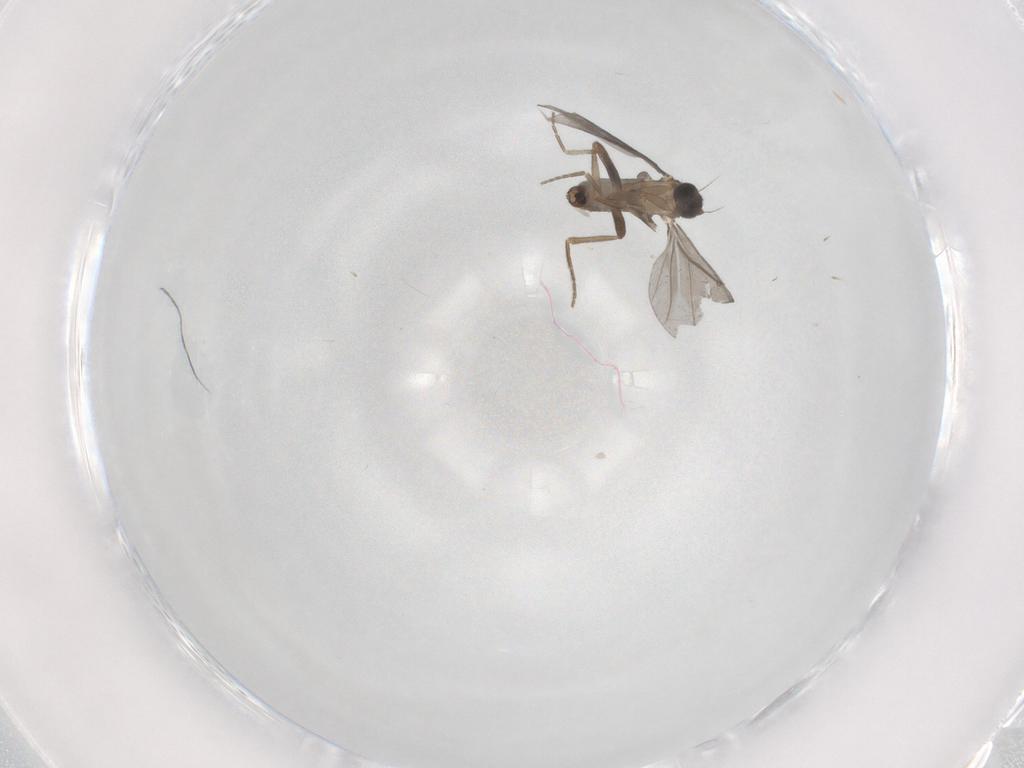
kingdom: Animalia
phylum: Arthropoda
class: Insecta
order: Diptera
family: Phoridae
